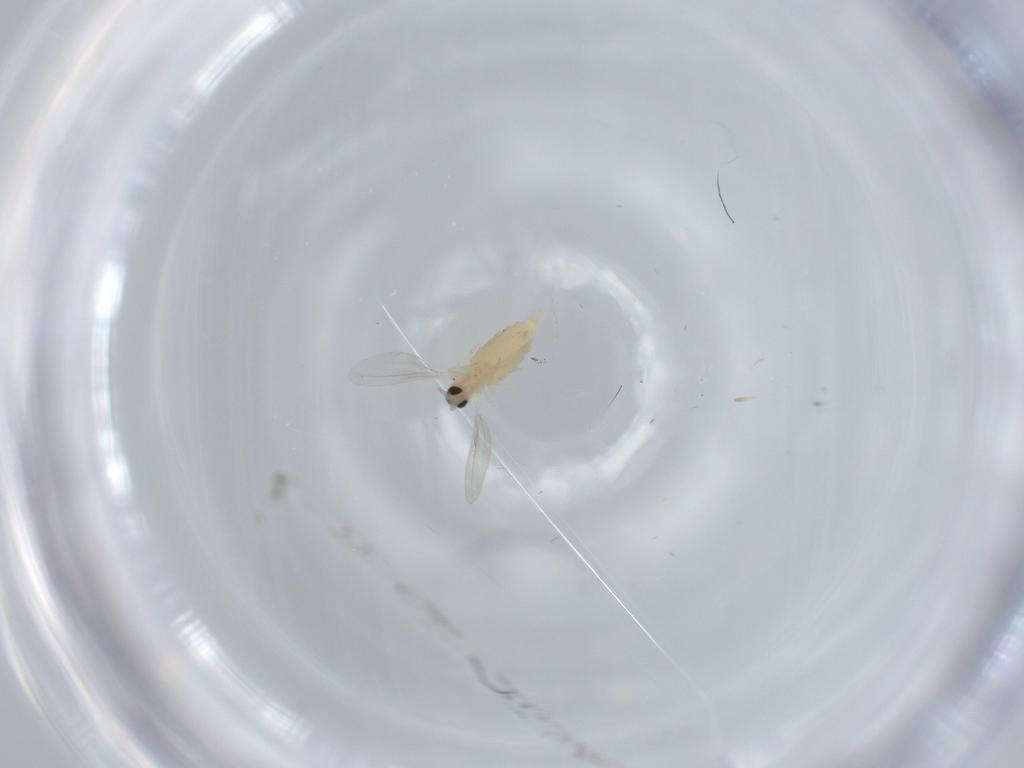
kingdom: Animalia
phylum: Arthropoda
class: Insecta
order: Diptera
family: Cecidomyiidae
